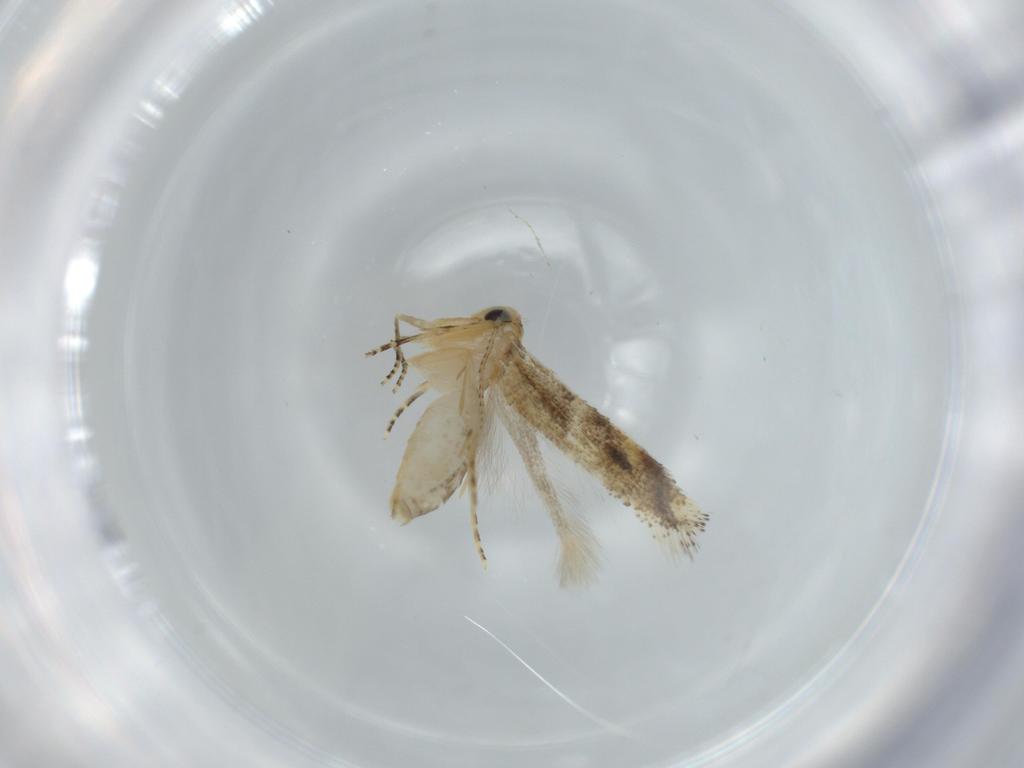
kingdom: Animalia
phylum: Arthropoda
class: Insecta
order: Lepidoptera
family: Bucculatricidae
